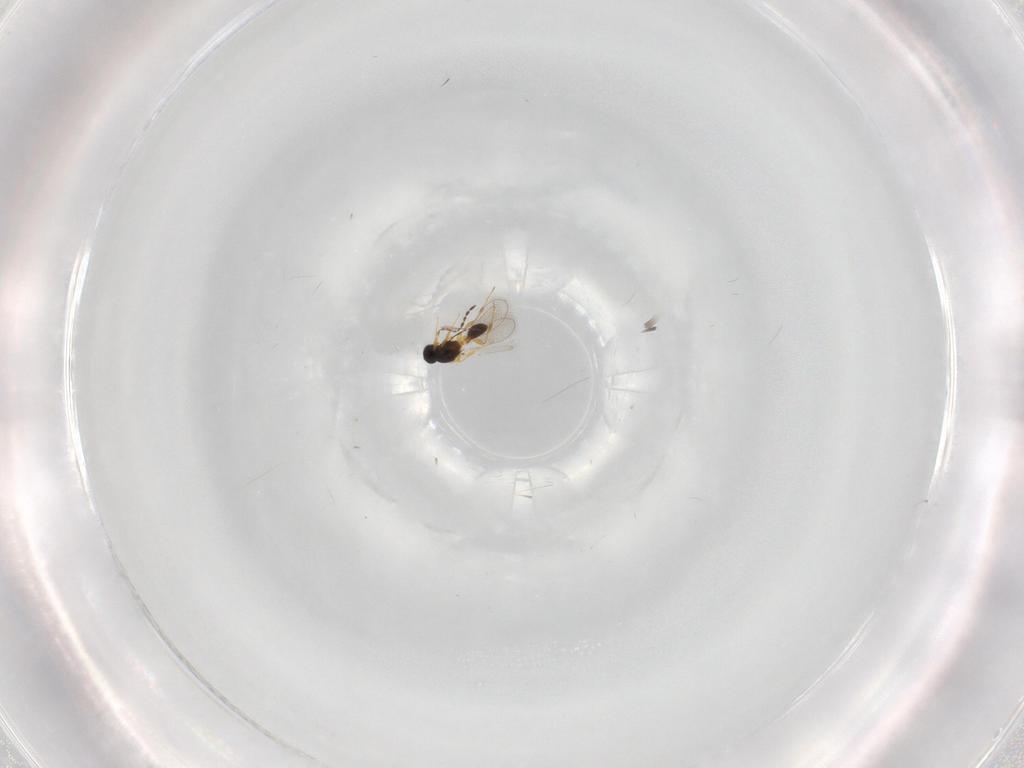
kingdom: Animalia
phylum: Arthropoda
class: Insecta
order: Hymenoptera
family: Platygastridae
